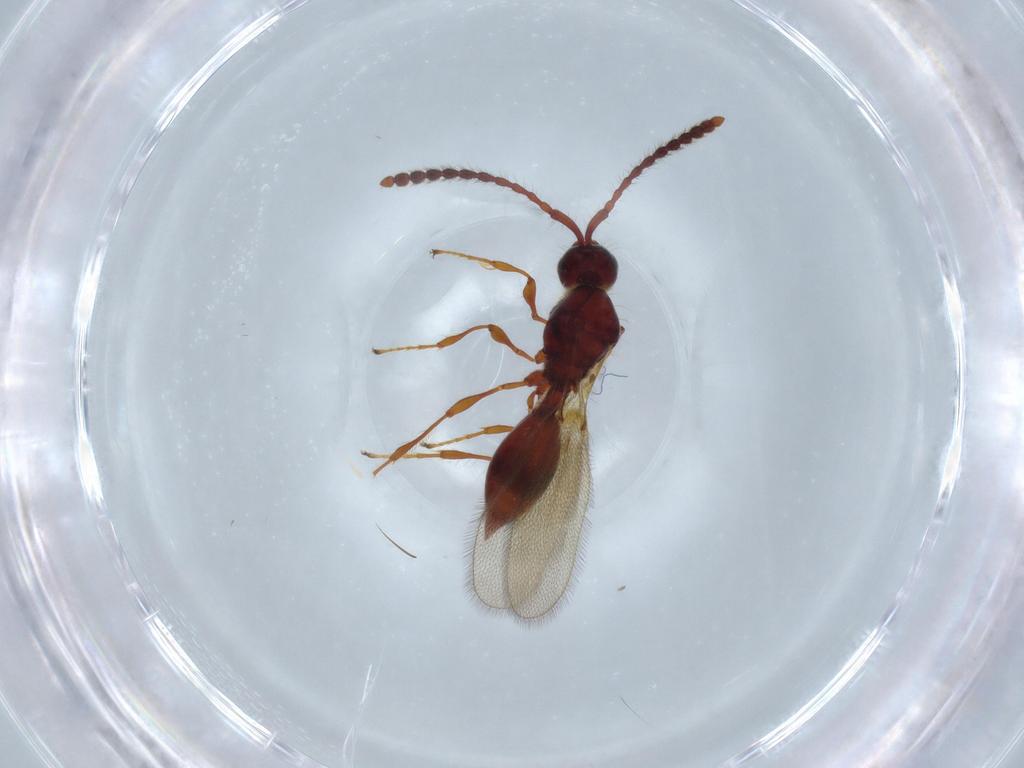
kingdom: Animalia
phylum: Arthropoda
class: Insecta
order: Hymenoptera
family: Diapriidae
